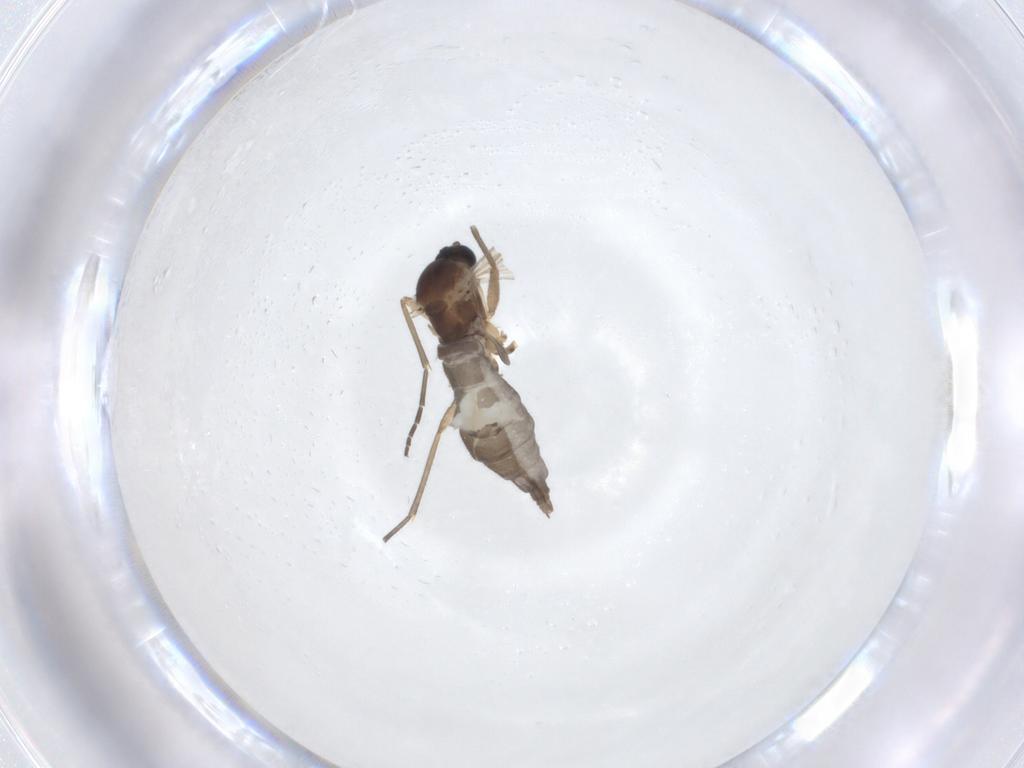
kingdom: Animalia
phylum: Arthropoda
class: Insecta
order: Diptera
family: Sciaridae
